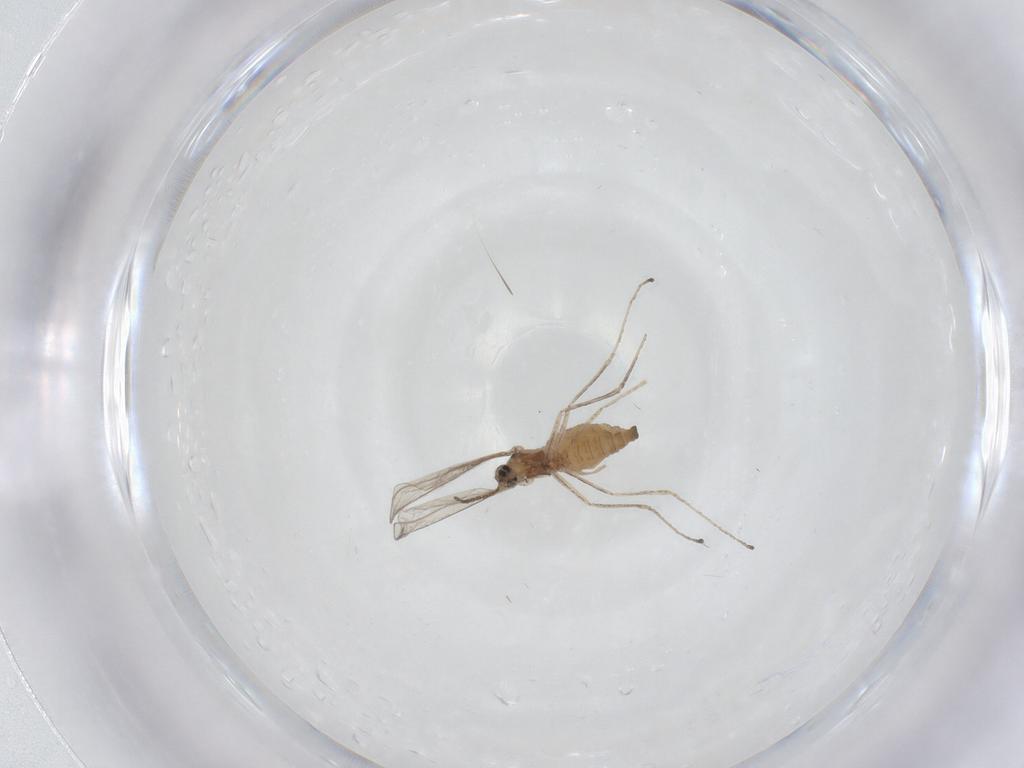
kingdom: Animalia
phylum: Arthropoda
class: Insecta
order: Diptera
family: Cecidomyiidae
